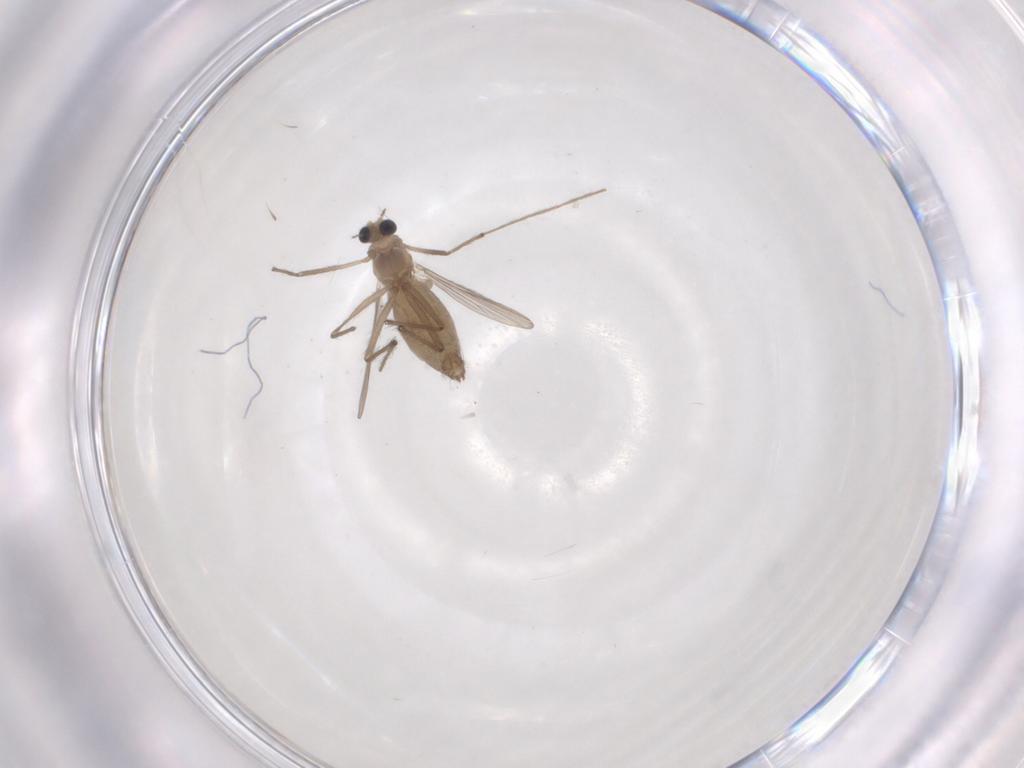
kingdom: Animalia
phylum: Arthropoda
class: Insecta
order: Diptera
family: Chironomidae
